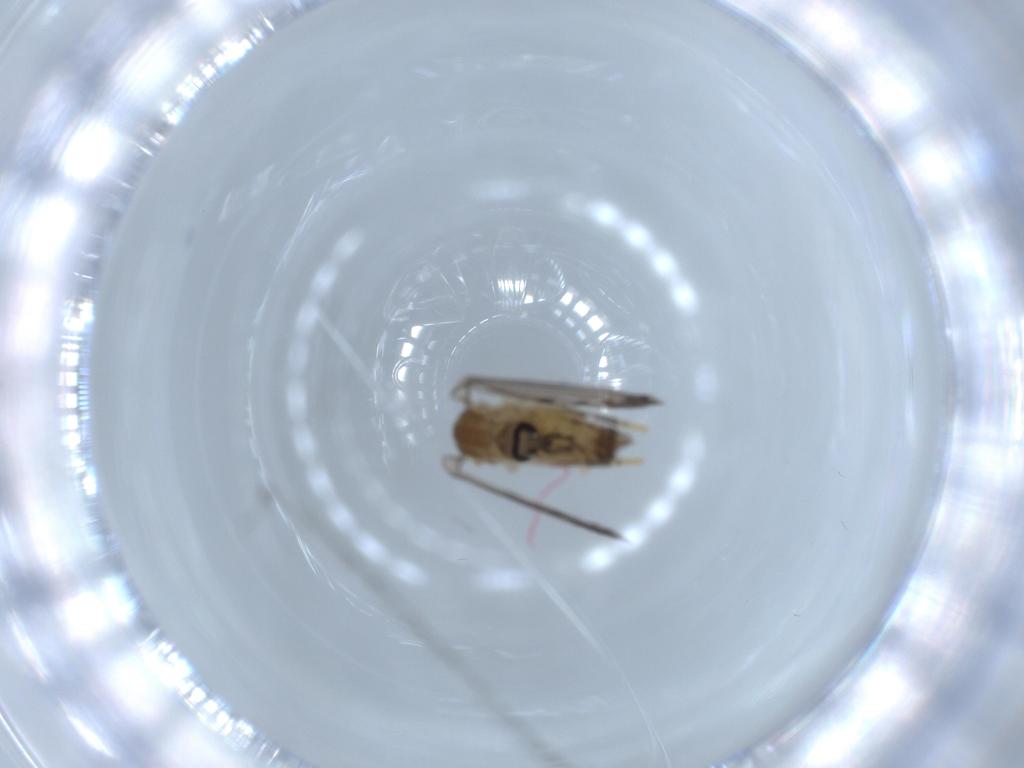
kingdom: Animalia
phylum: Arthropoda
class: Insecta
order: Diptera
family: Psychodidae
